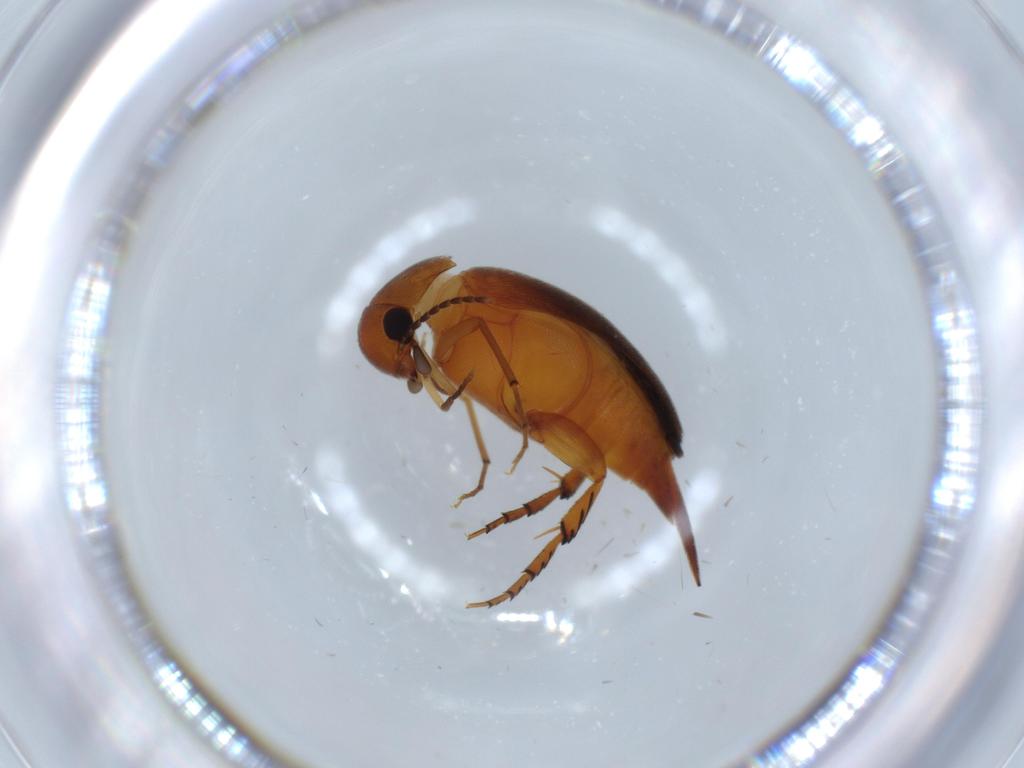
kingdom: Animalia
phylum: Arthropoda
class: Insecta
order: Coleoptera
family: Mordellidae
